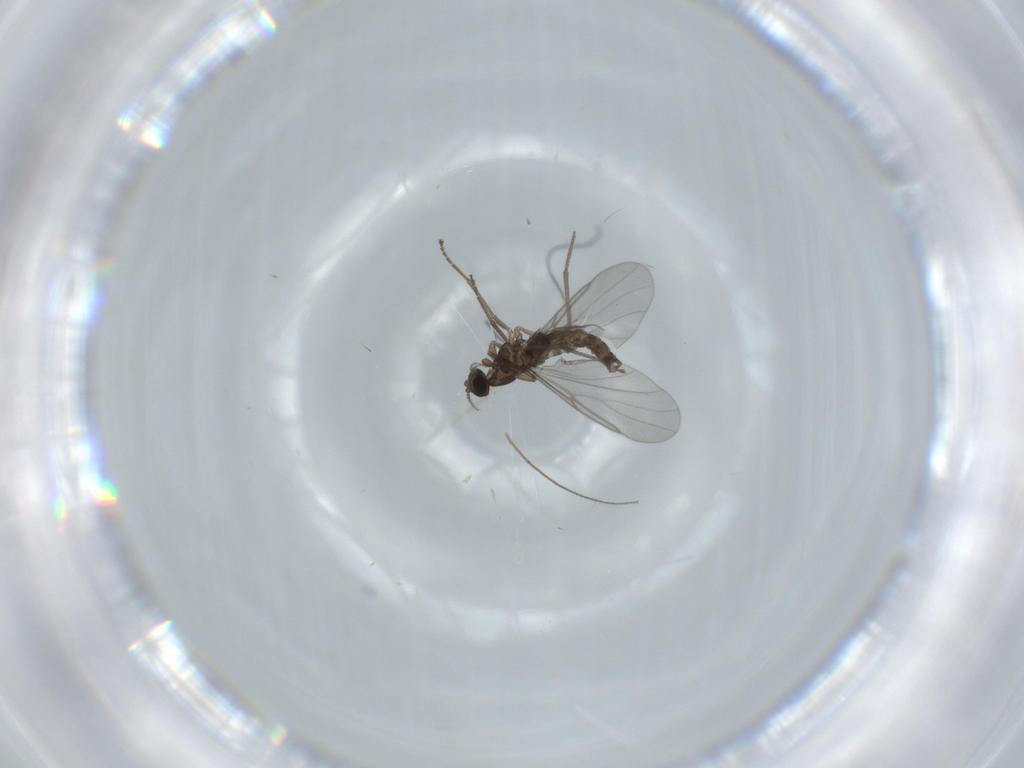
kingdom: Animalia
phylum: Arthropoda
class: Insecta
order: Diptera
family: Cecidomyiidae
